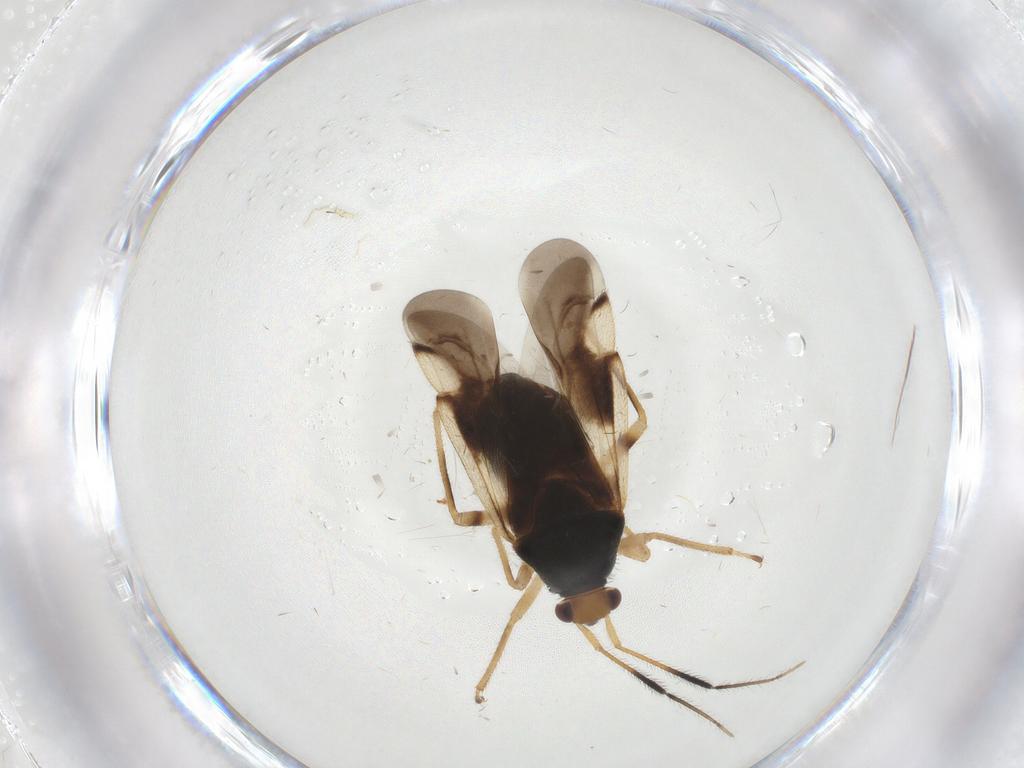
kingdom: Animalia
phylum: Arthropoda
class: Insecta
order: Hemiptera
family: Miridae
